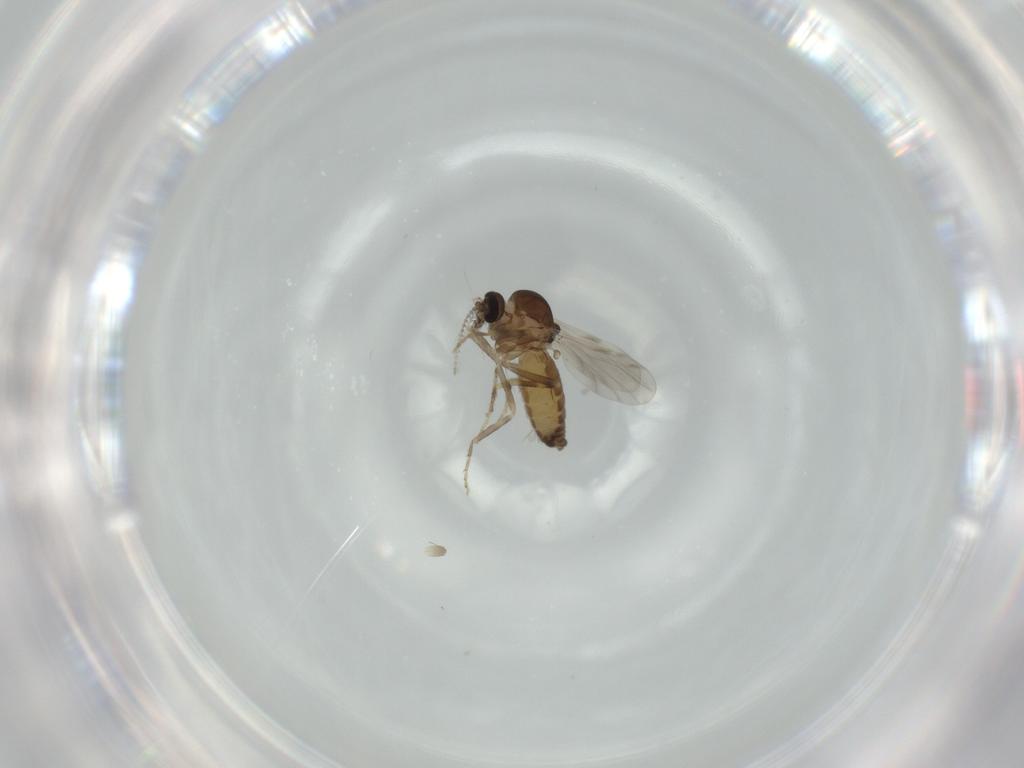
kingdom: Animalia
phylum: Arthropoda
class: Insecta
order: Diptera
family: Ceratopogonidae
